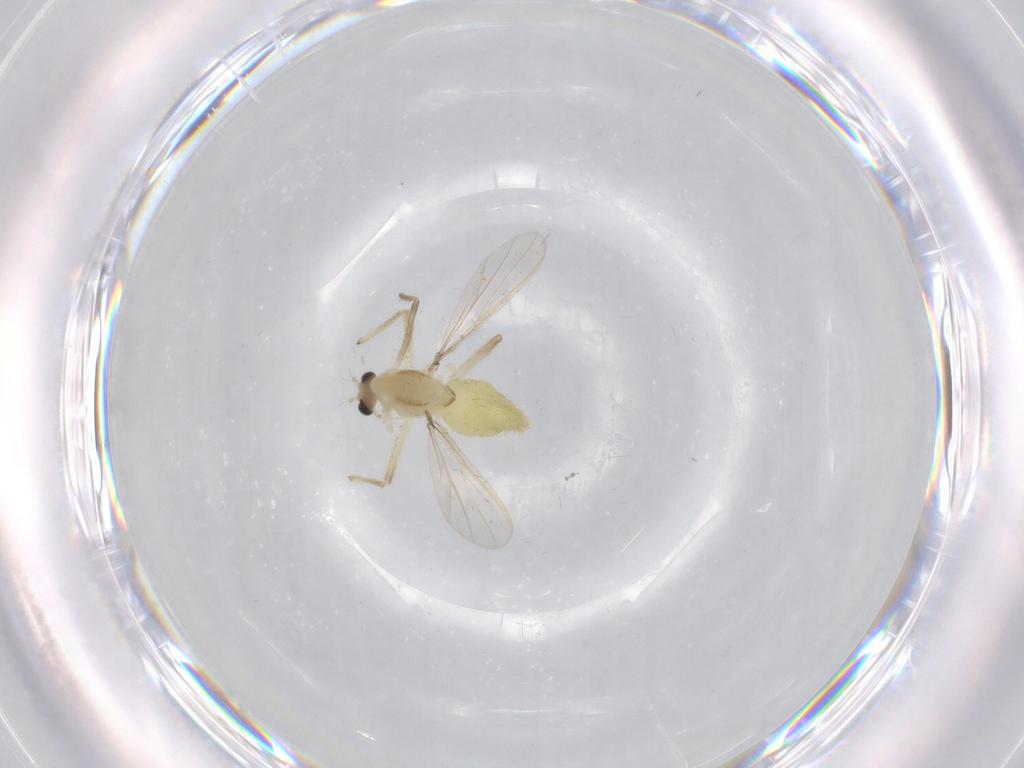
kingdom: Animalia
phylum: Arthropoda
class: Insecta
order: Diptera
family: Chironomidae
